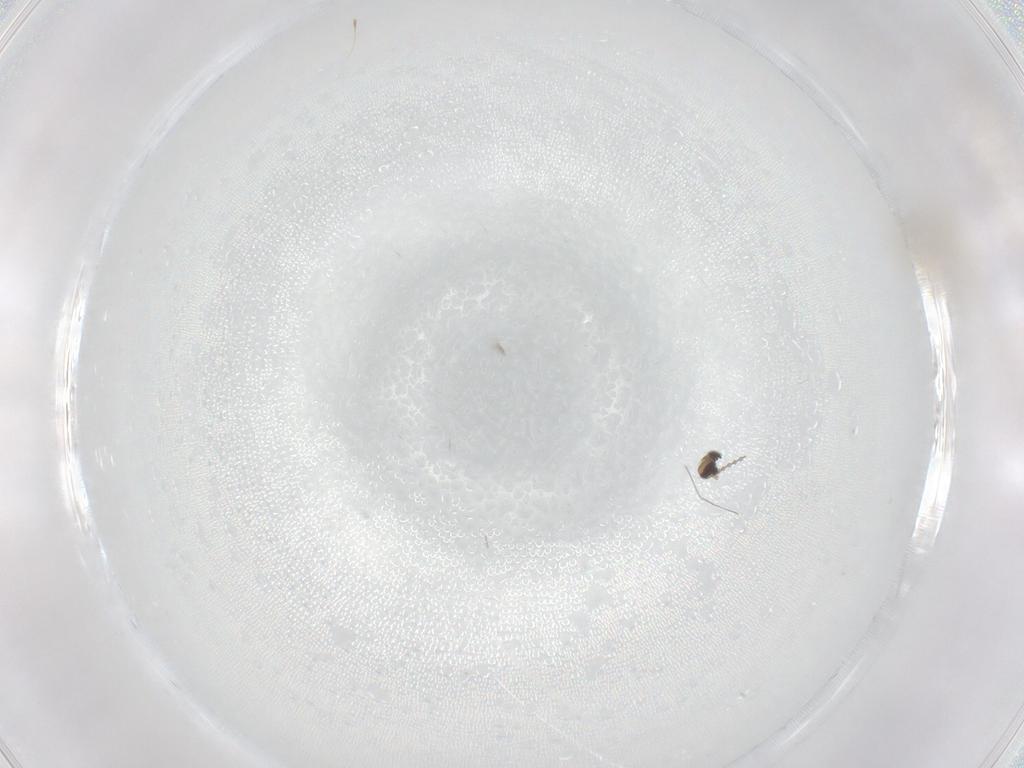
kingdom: Animalia
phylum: Arthropoda
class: Insecta
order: Diptera
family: Cecidomyiidae
